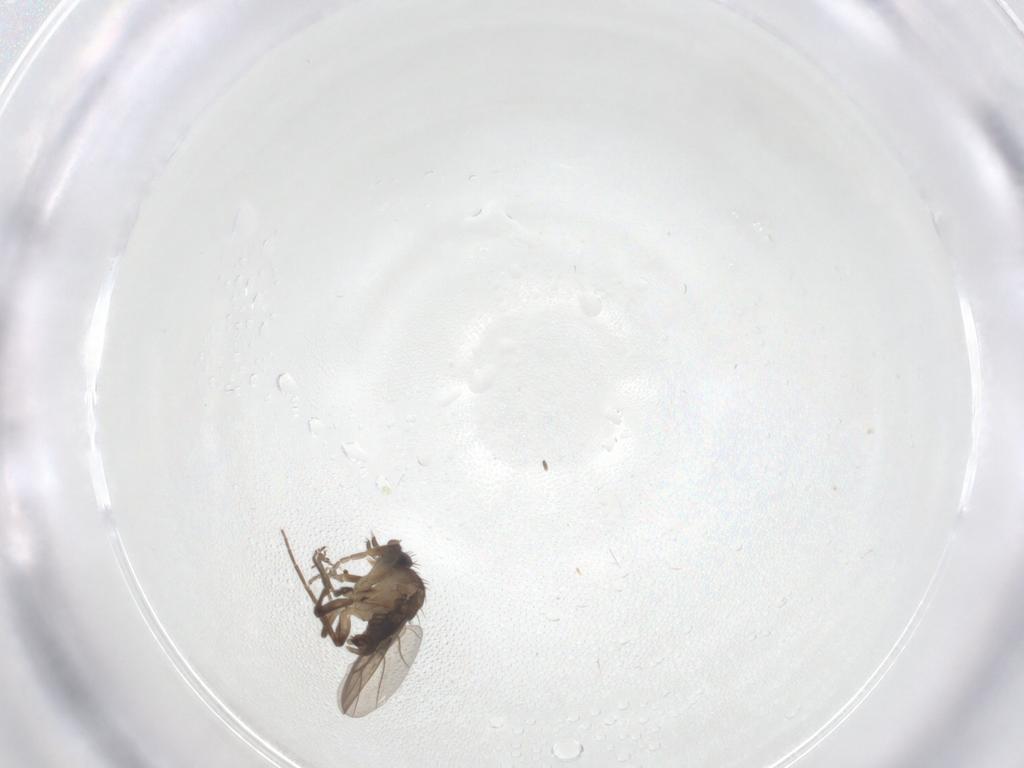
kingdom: Animalia
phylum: Arthropoda
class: Insecta
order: Diptera
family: Phoridae
